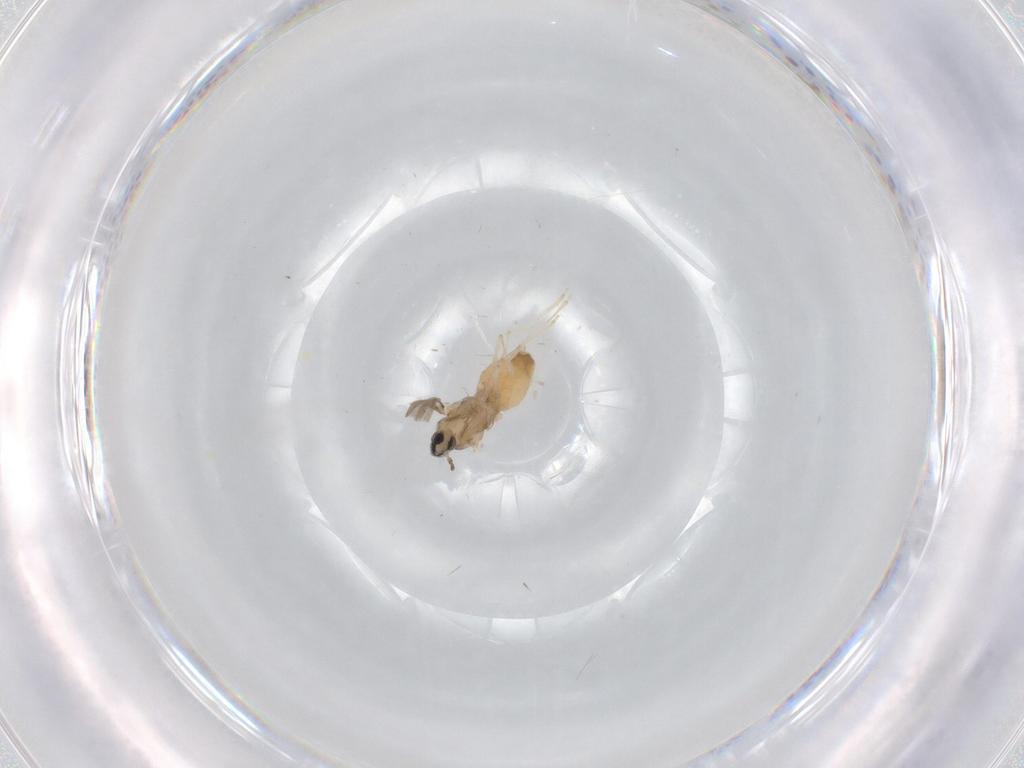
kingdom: Animalia
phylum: Arthropoda
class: Insecta
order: Diptera
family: Cecidomyiidae
